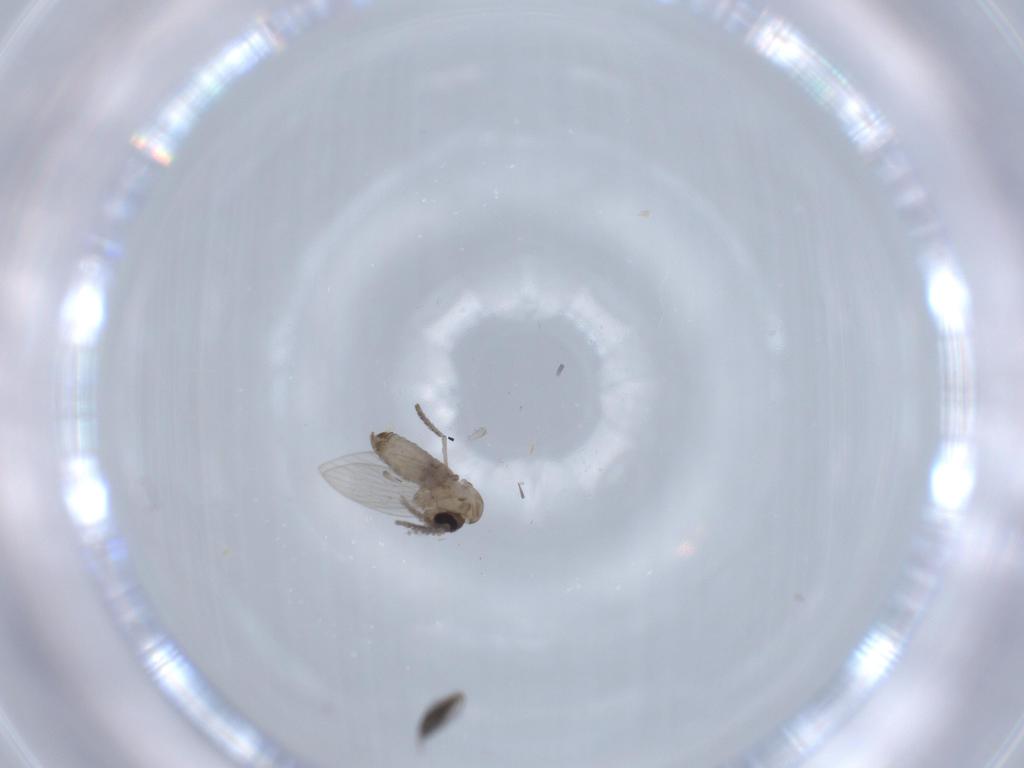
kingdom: Animalia
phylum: Arthropoda
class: Insecta
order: Diptera
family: Psychodidae
